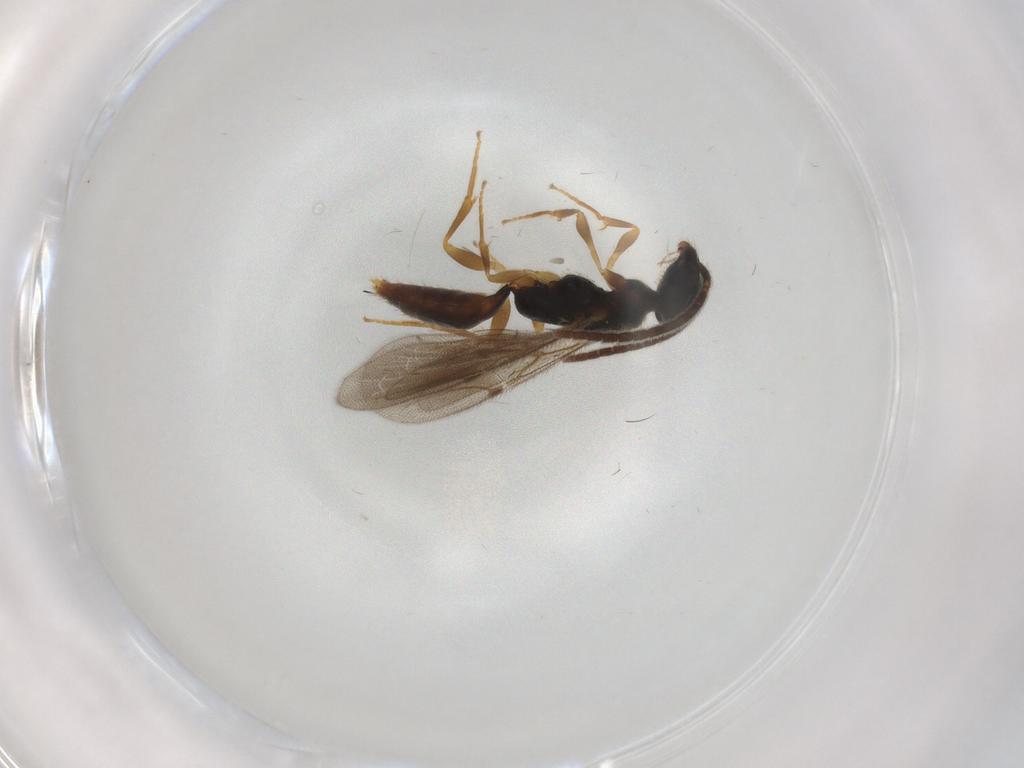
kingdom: Animalia
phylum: Arthropoda
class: Insecta
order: Hymenoptera
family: Bethylidae
